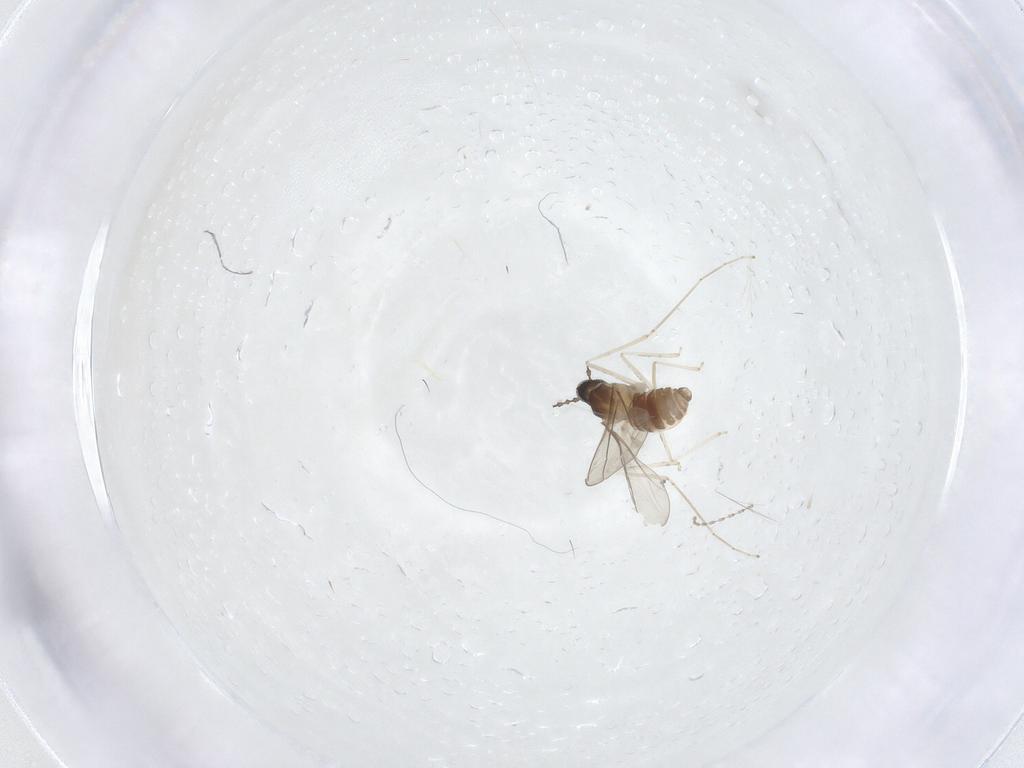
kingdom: Animalia
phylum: Arthropoda
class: Insecta
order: Diptera
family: Cecidomyiidae
